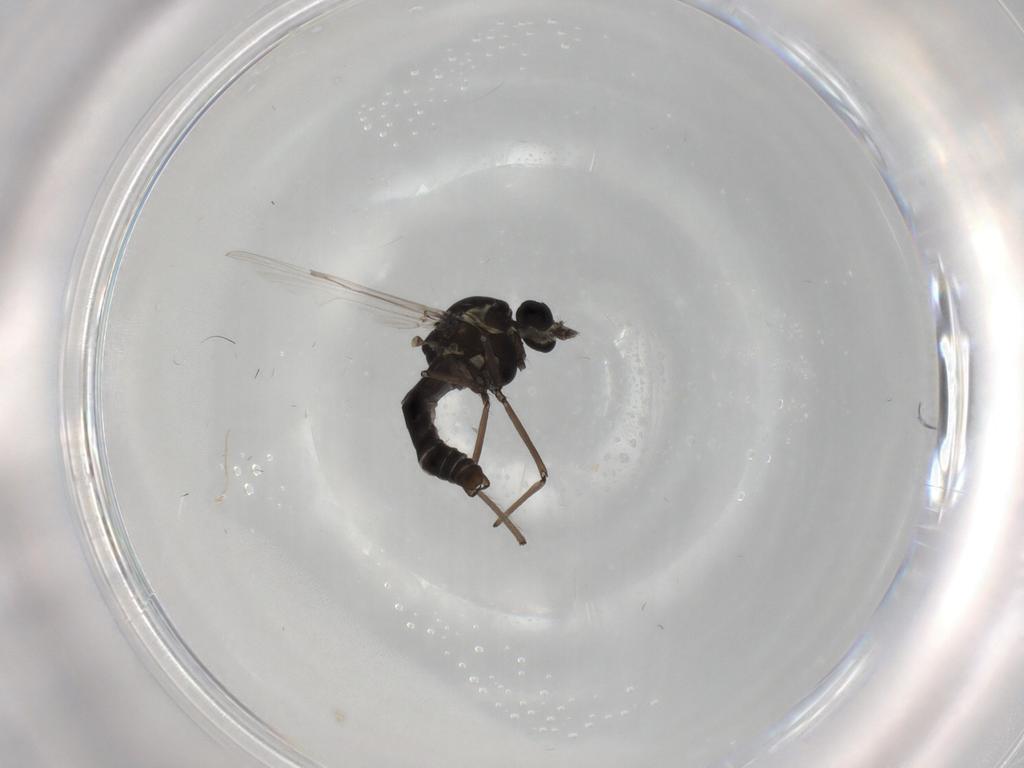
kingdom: Animalia
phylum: Arthropoda
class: Insecta
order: Diptera
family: Ceratopogonidae
